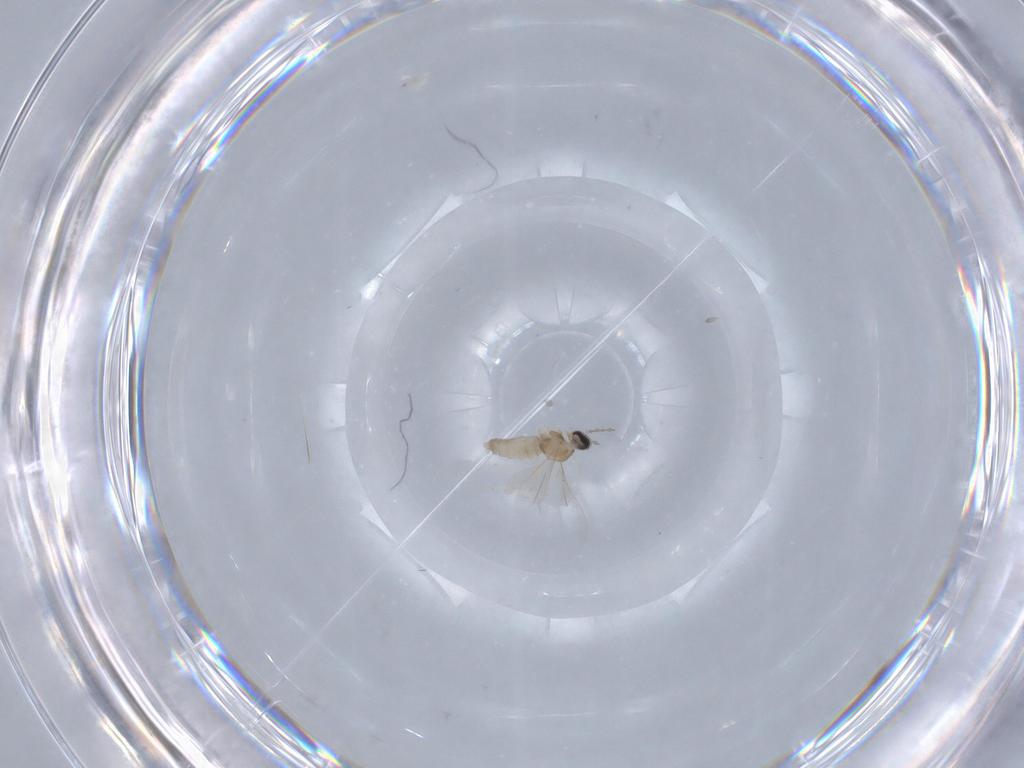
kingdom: Animalia
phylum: Arthropoda
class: Insecta
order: Diptera
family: Cecidomyiidae
